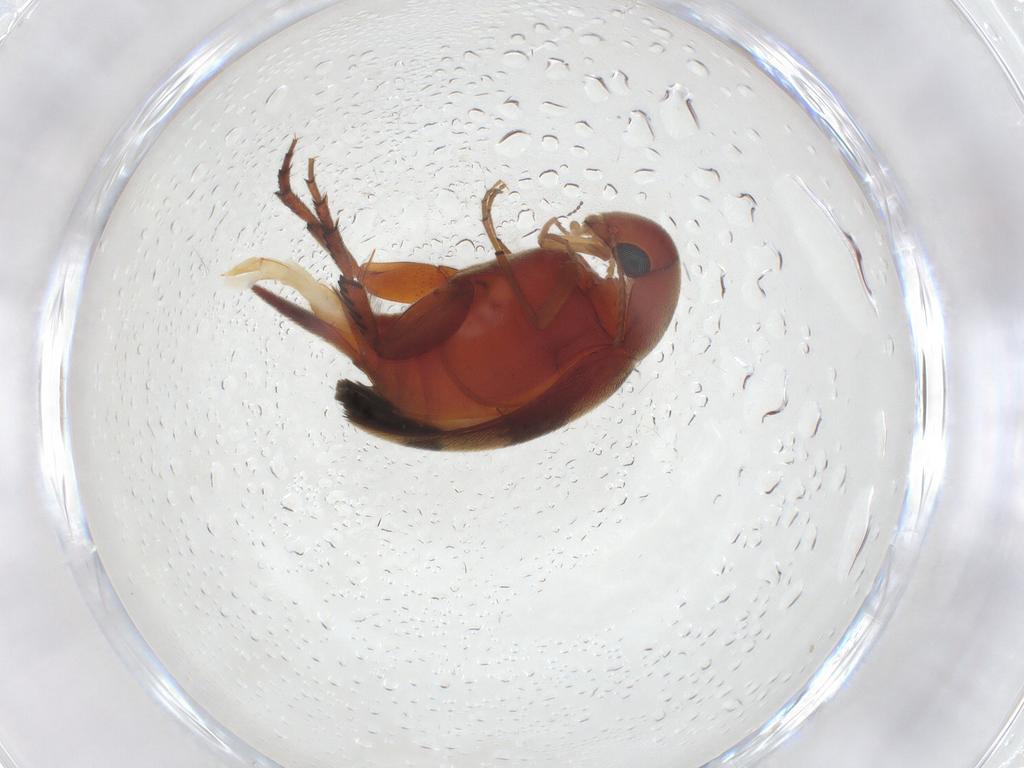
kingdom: Animalia
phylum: Arthropoda
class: Insecta
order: Coleoptera
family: Mordellidae
